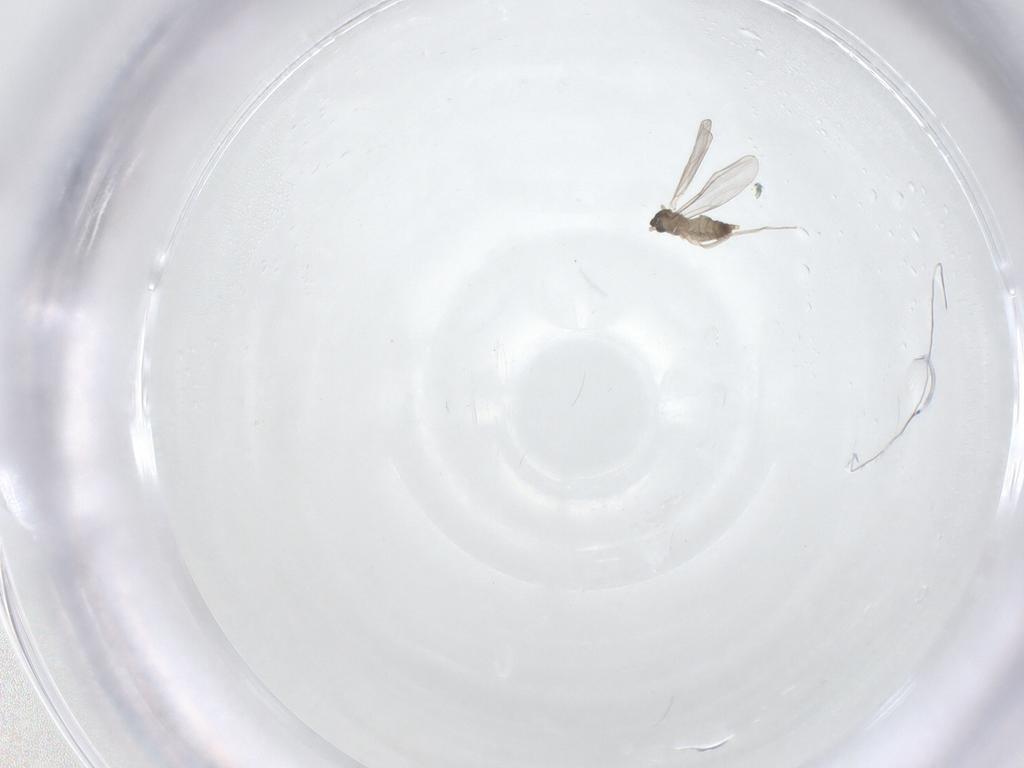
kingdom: Animalia
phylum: Arthropoda
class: Insecta
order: Diptera
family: Cecidomyiidae
